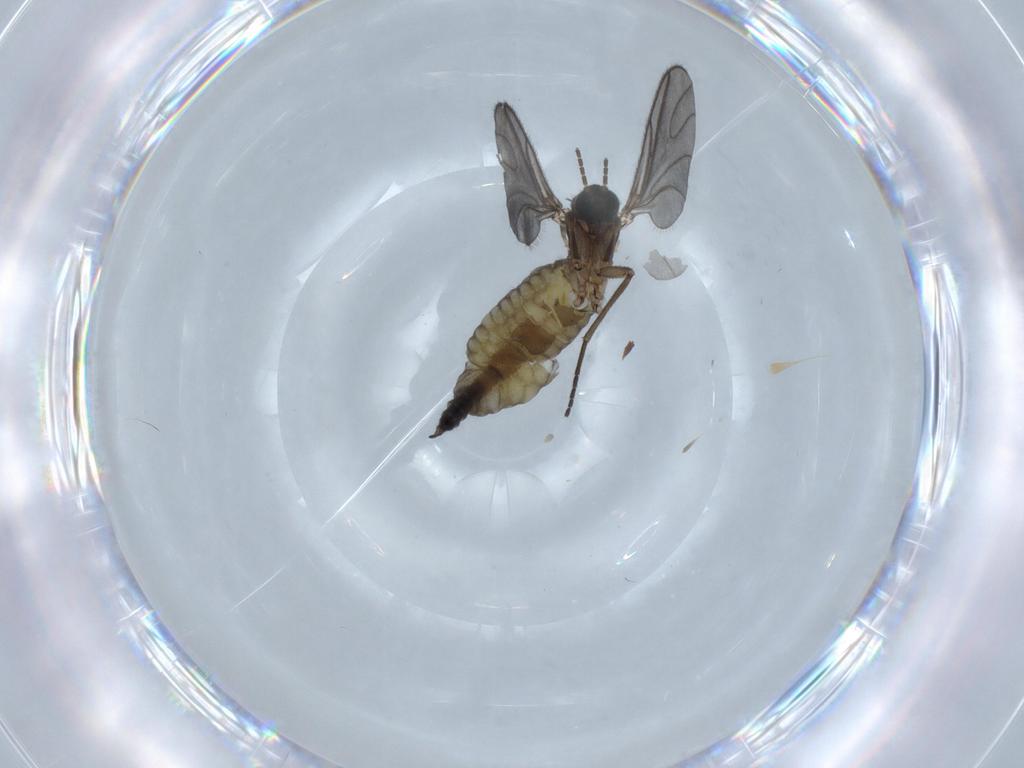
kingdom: Animalia
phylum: Arthropoda
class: Insecta
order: Diptera
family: Sciaridae
